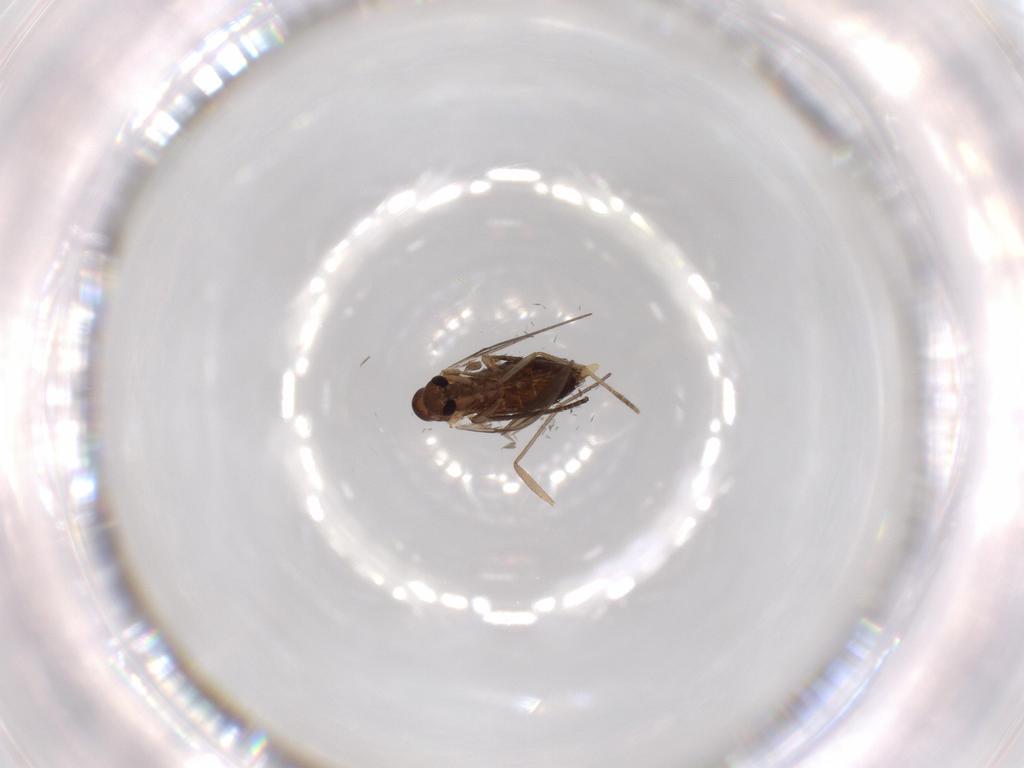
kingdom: Animalia
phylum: Arthropoda
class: Insecta
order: Diptera
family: Simuliidae
